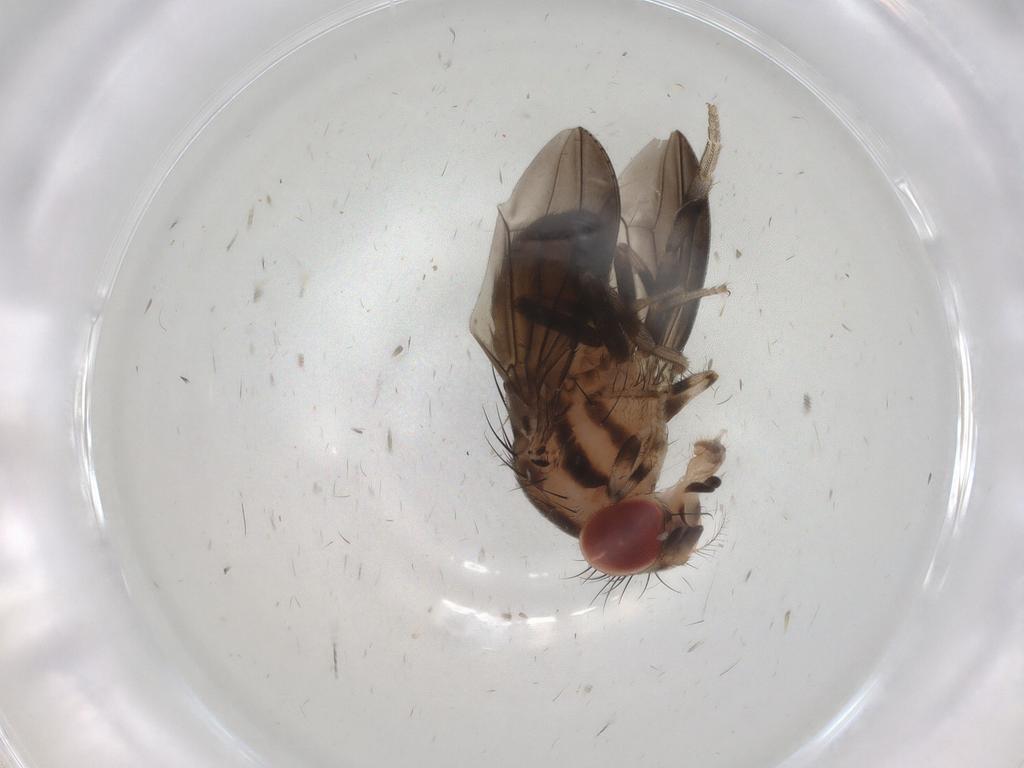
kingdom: Animalia
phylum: Arthropoda
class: Insecta
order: Diptera
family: Drosophilidae
